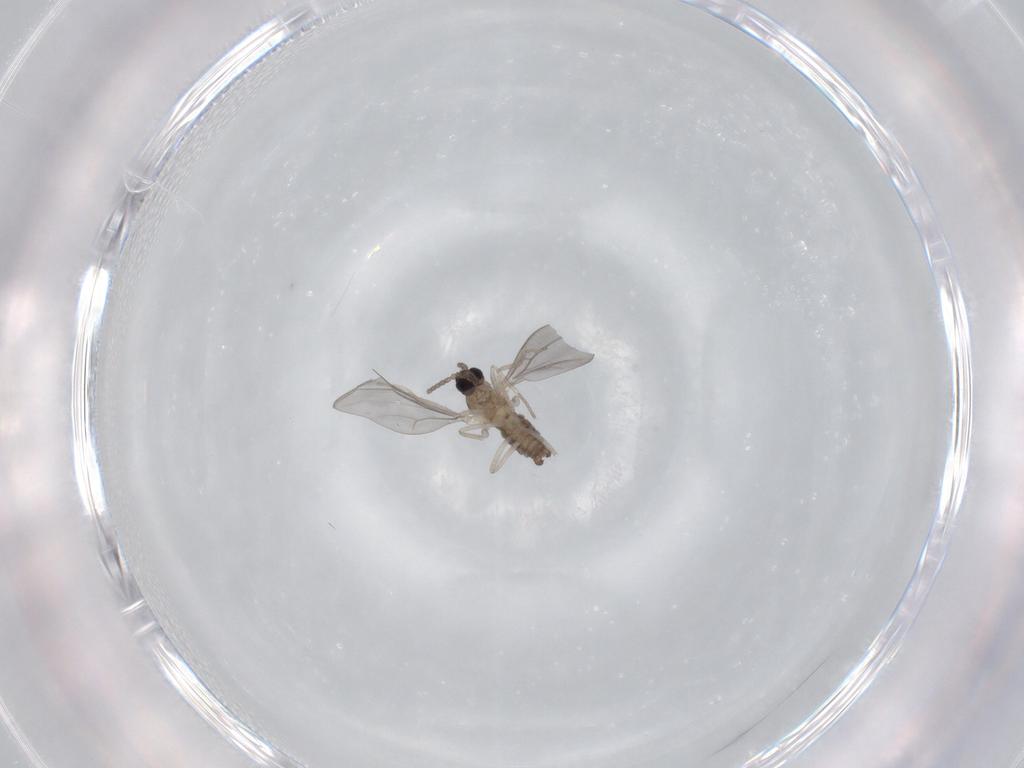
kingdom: Animalia
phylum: Arthropoda
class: Insecta
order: Diptera
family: Cecidomyiidae
